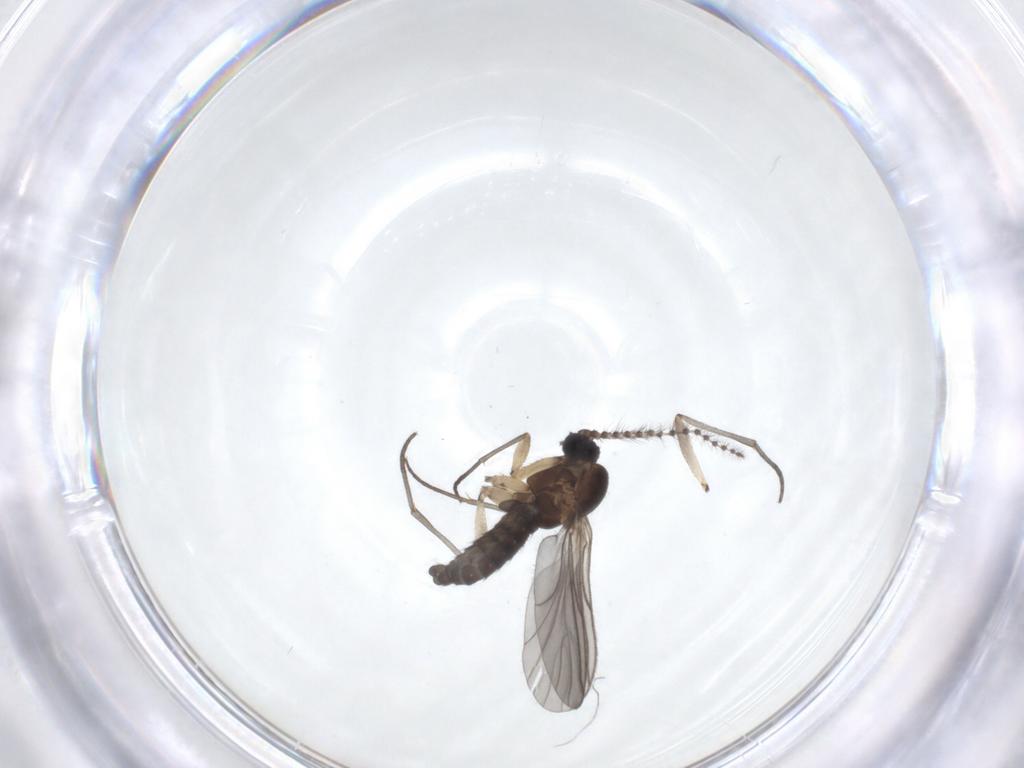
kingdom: Animalia
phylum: Arthropoda
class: Insecta
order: Diptera
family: Sciaridae
